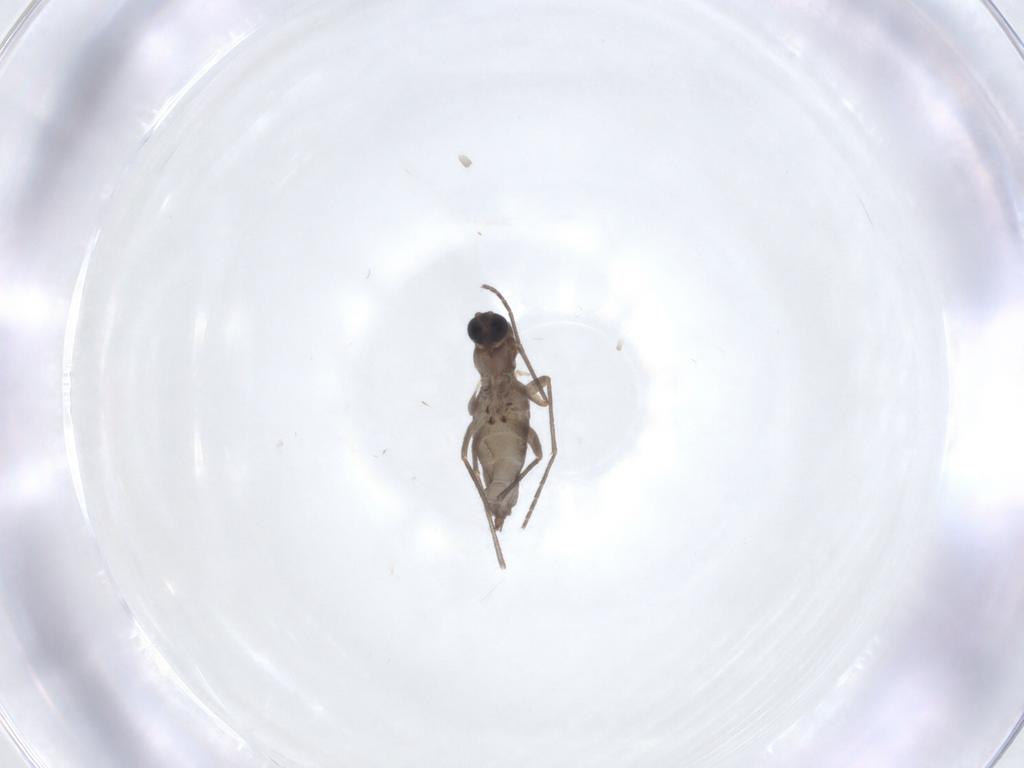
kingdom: Animalia
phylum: Arthropoda
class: Insecta
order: Diptera
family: Sciaridae
